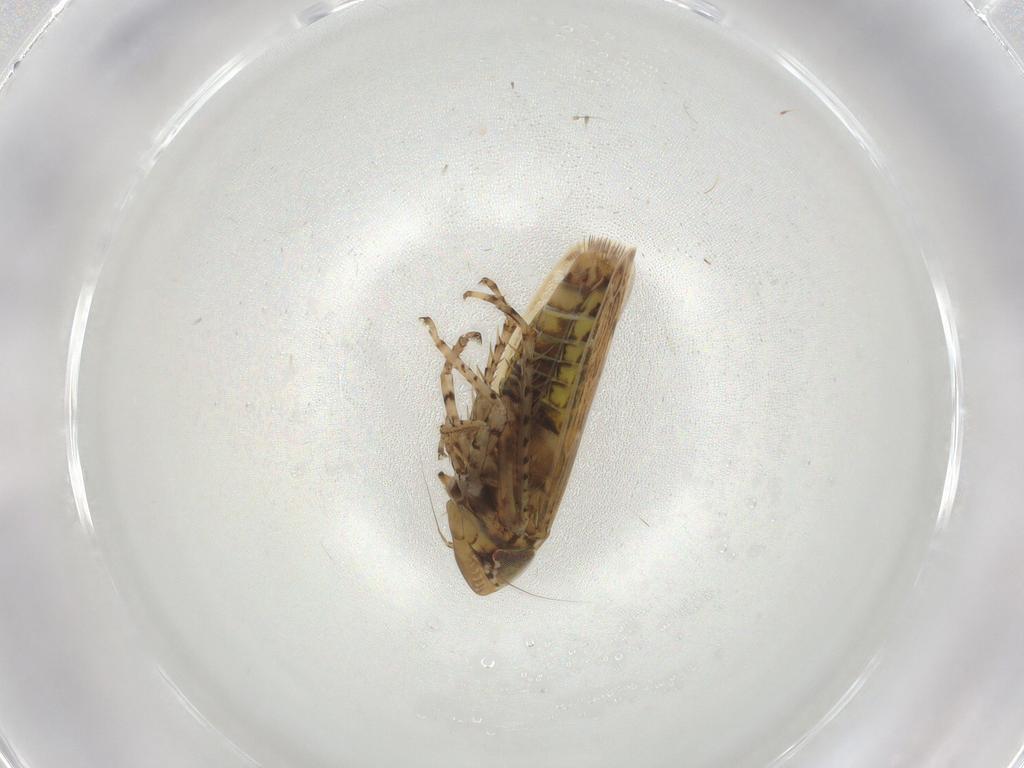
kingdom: Animalia
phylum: Arthropoda
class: Insecta
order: Hemiptera
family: Cicadellidae
